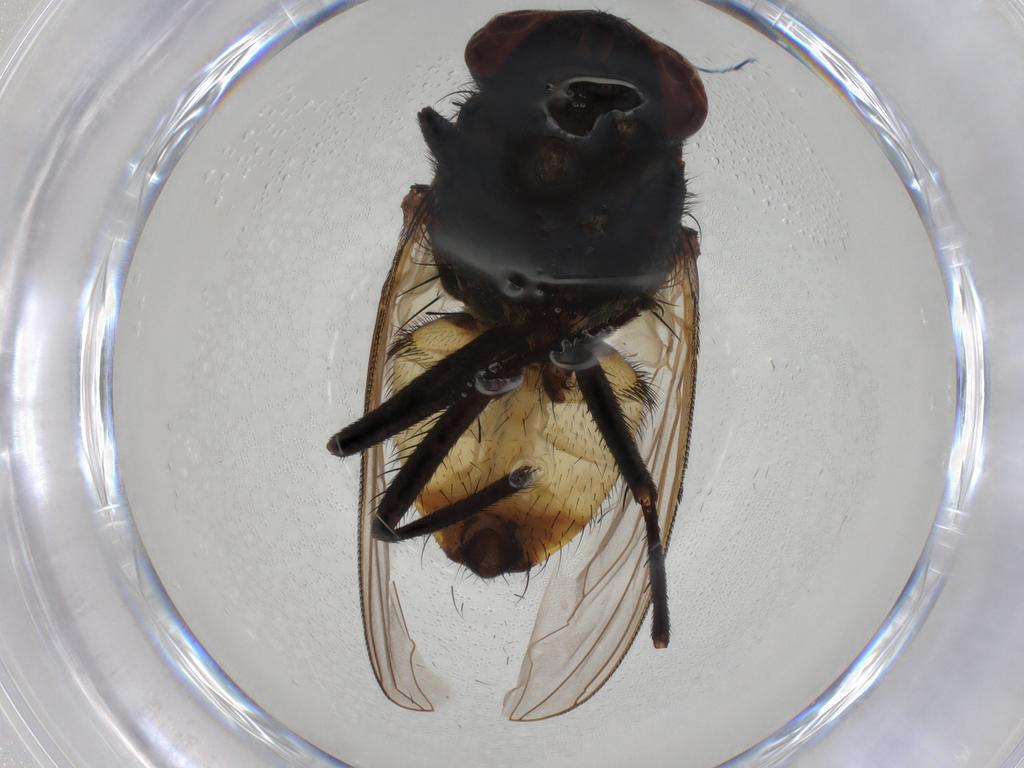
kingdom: Animalia
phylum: Arthropoda
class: Insecta
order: Diptera
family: Muscidae
